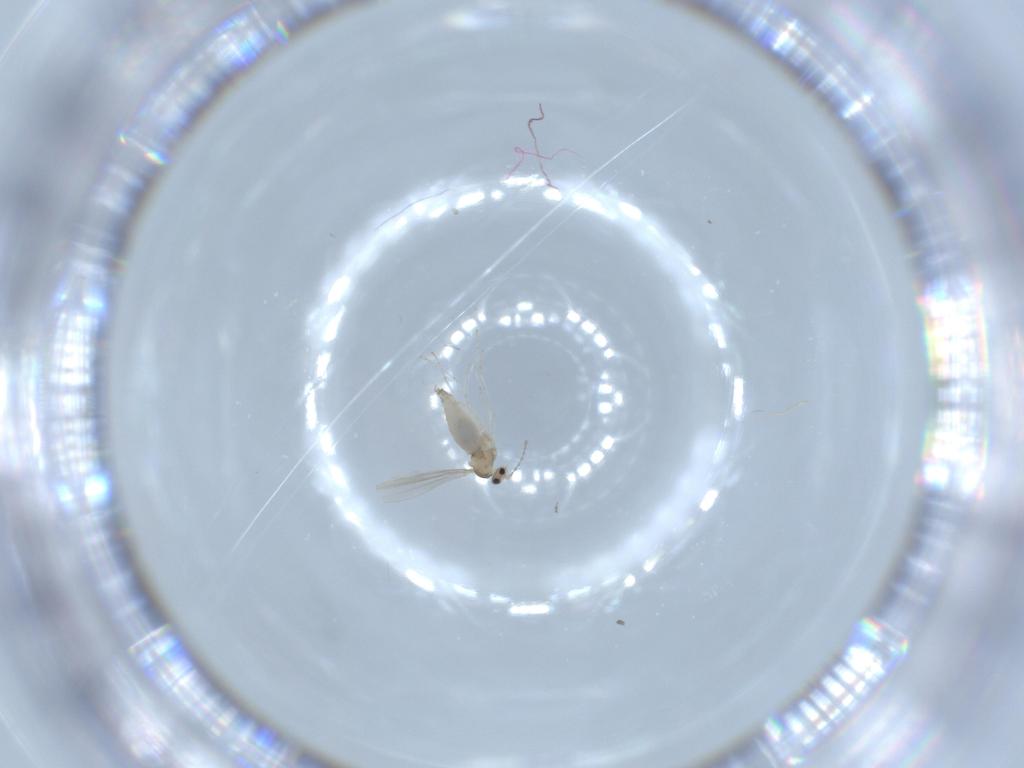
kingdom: Animalia
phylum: Arthropoda
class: Insecta
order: Diptera
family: Cecidomyiidae
